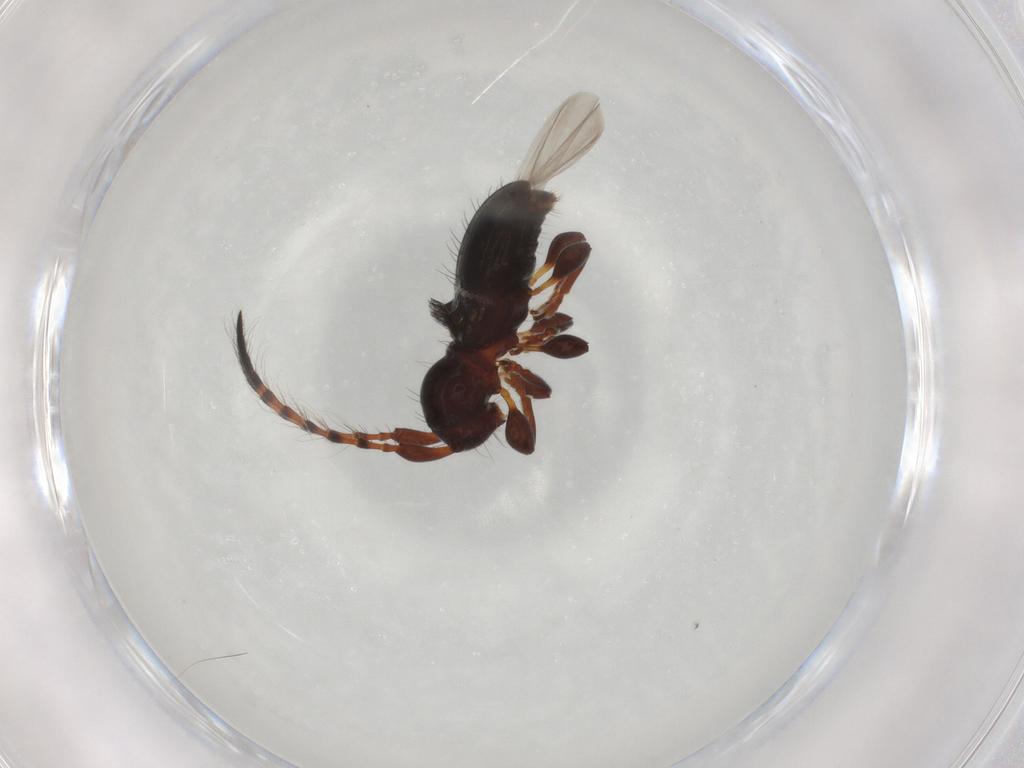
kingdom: Animalia
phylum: Arthropoda
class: Insecta
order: Coleoptera
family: Cerambycidae
